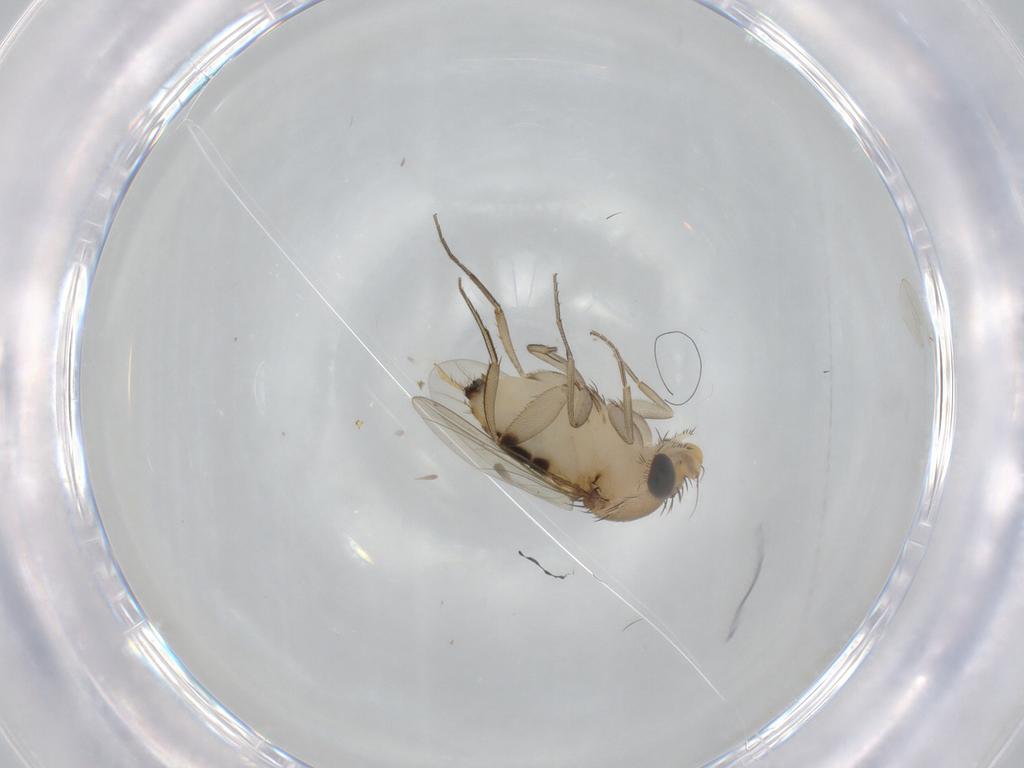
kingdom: Animalia
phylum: Arthropoda
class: Insecta
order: Diptera
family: Phoridae
